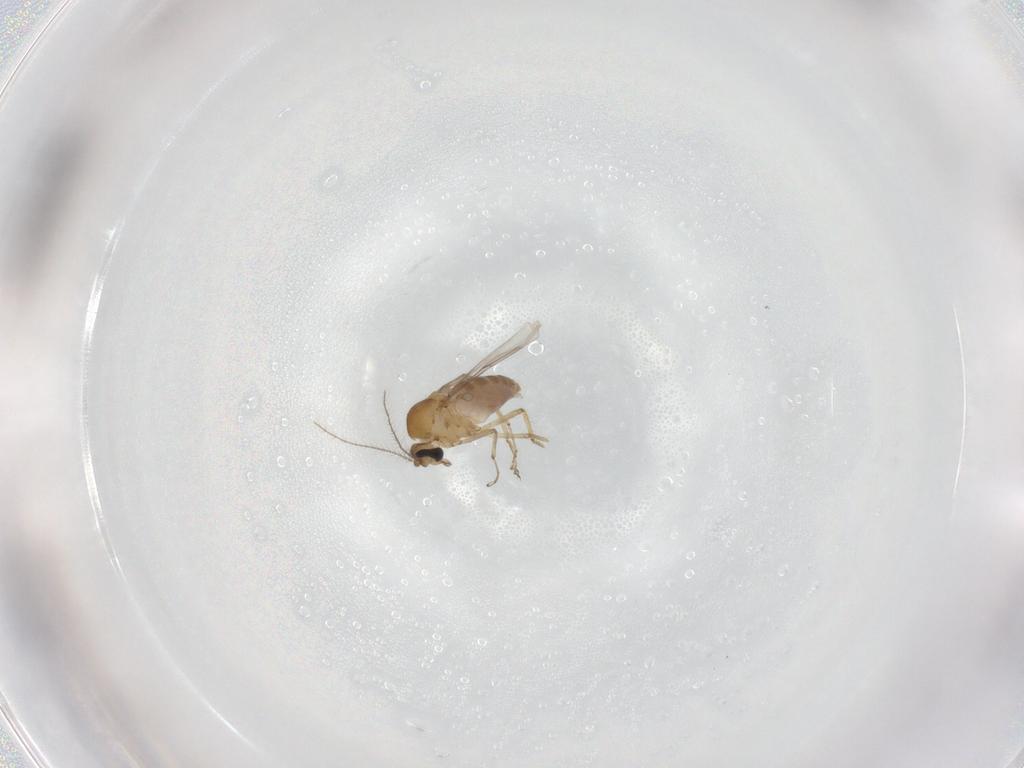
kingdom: Animalia
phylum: Arthropoda
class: Insecta
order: Diptera
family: Ceratopogonidae
